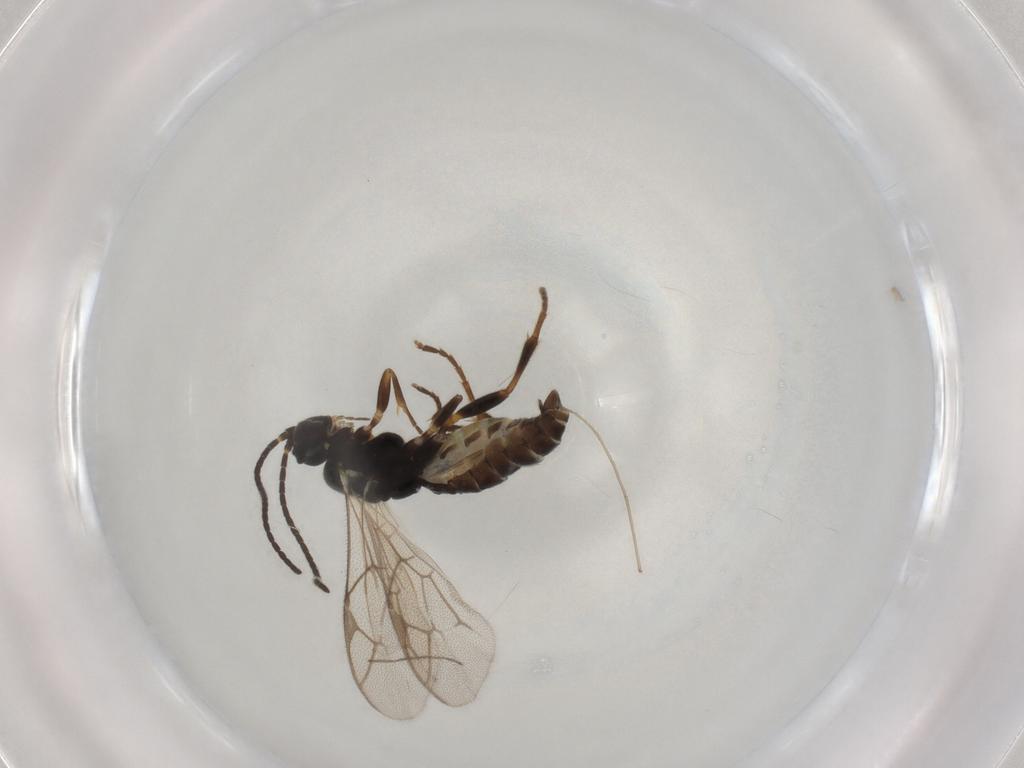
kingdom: Animalia
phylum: Arthropoda
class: Insecta
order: Hymenoptera
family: Ichneumonidae
